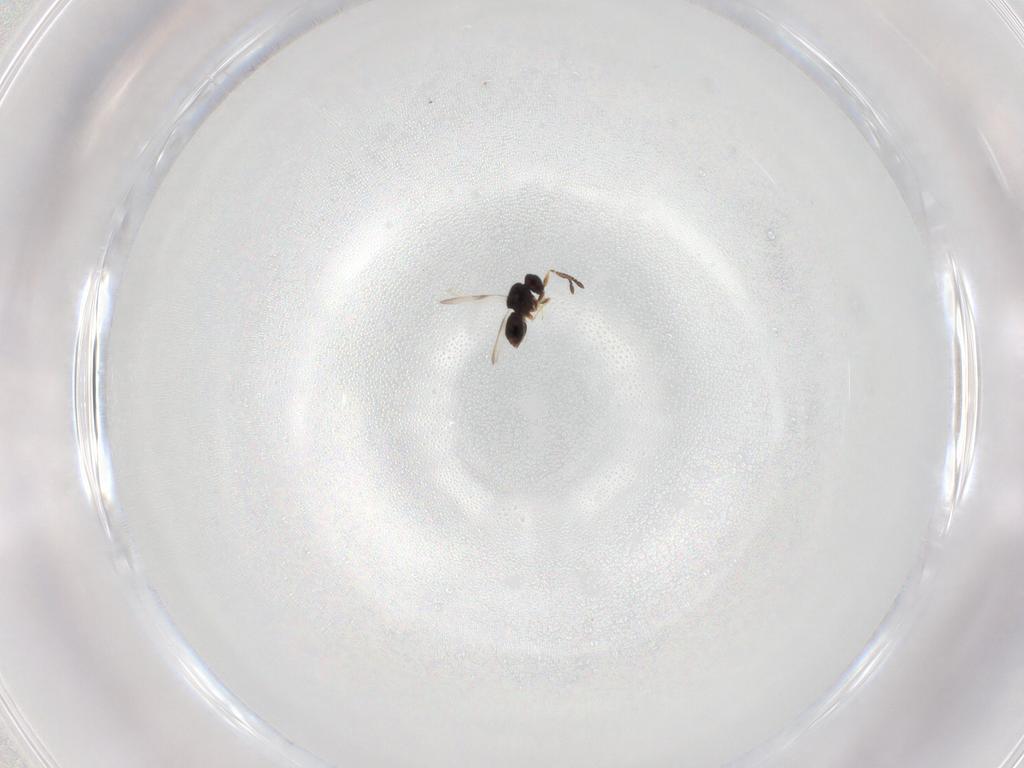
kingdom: Animalia
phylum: Arthropoda
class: Insecta
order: Hymenoptera
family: Ceraphronidae
